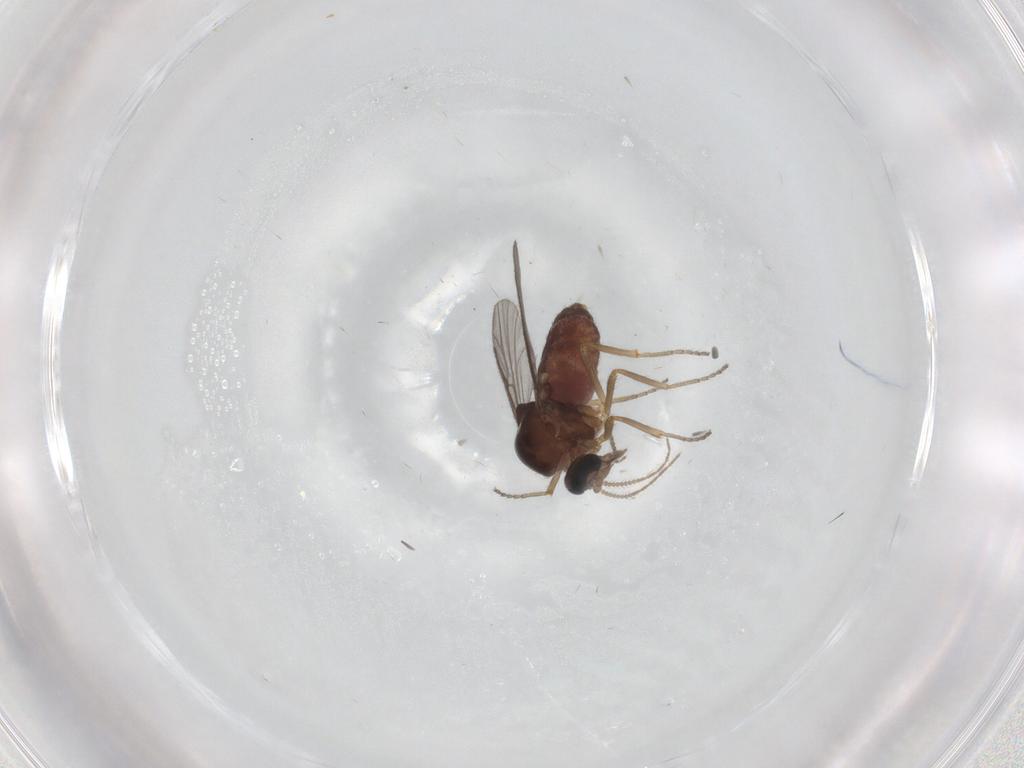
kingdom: Animalia
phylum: Arthropoda
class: Insecta
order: Diptera
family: Ceratopogonidae
